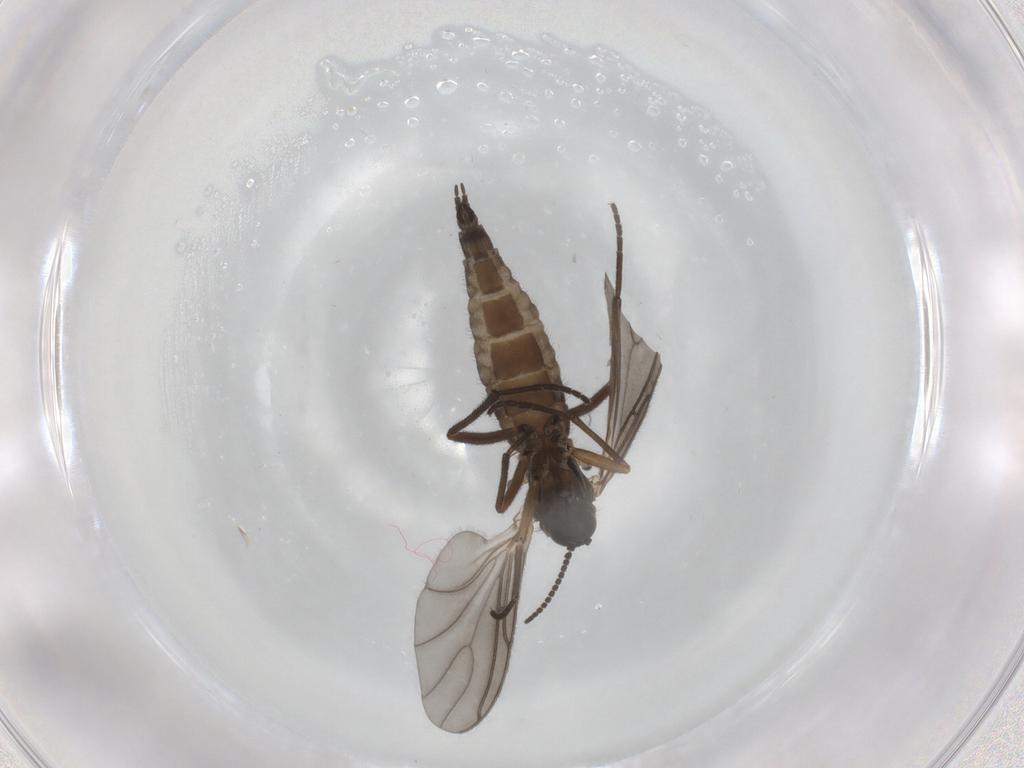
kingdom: Animalia
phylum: Arthropoda
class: Insecta
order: Diptera
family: Sciaridae
